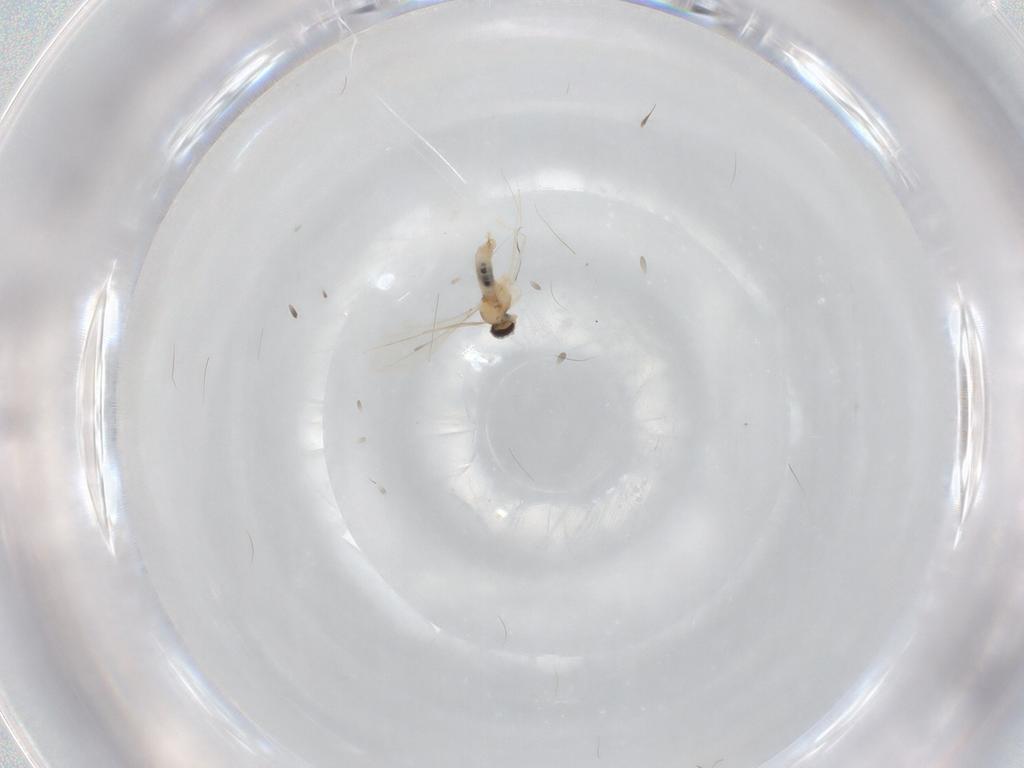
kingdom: Animalia
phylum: Arthropoda
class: Insecta
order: Diptera
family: Cecidomyiidae
